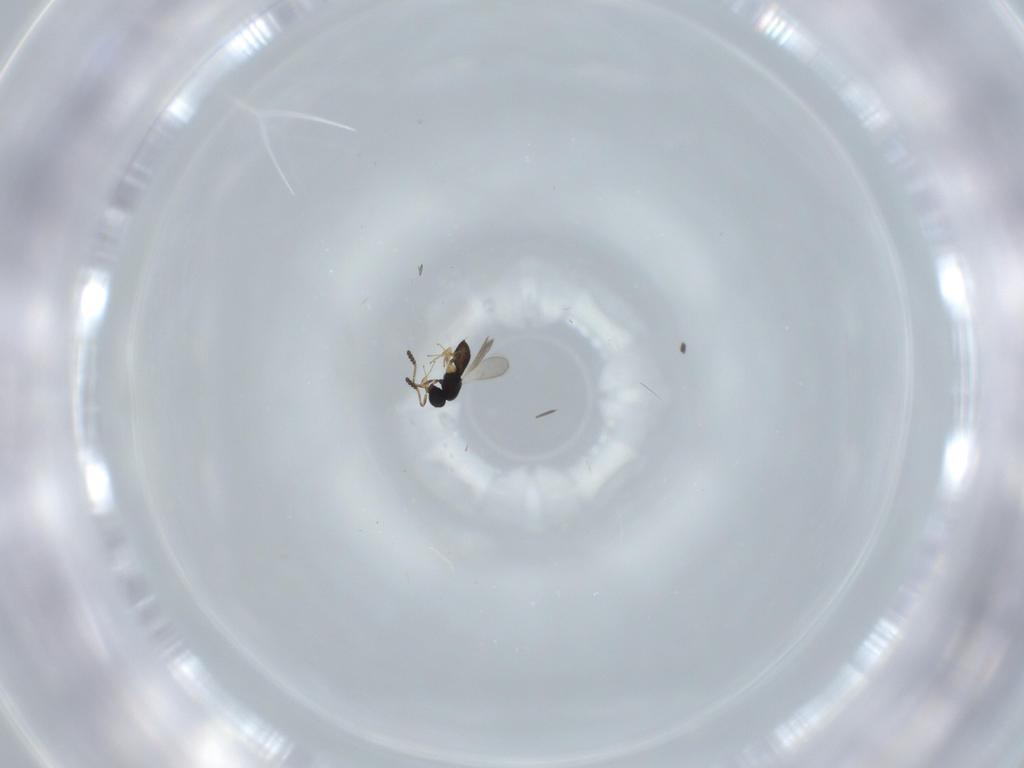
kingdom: Animalia
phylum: Arthropoda
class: Insecta
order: Hymenoptera
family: Scelionidae
